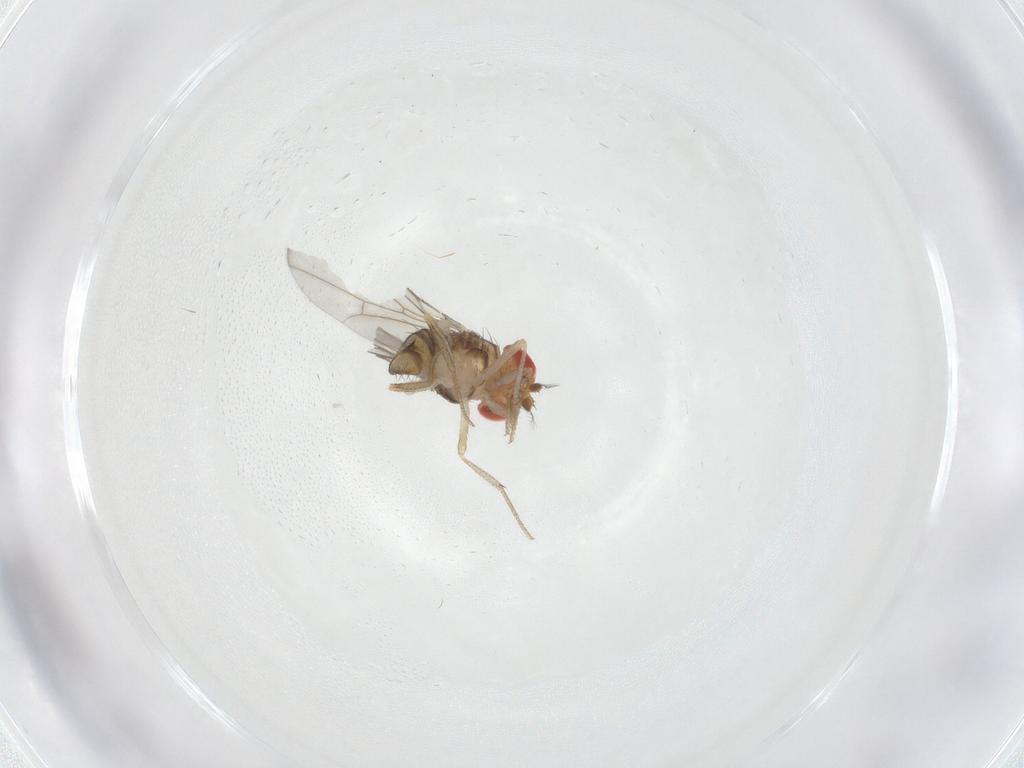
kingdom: Animalia
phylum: Arthropoda
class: Insecta
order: Diptera
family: Drosophilidae
